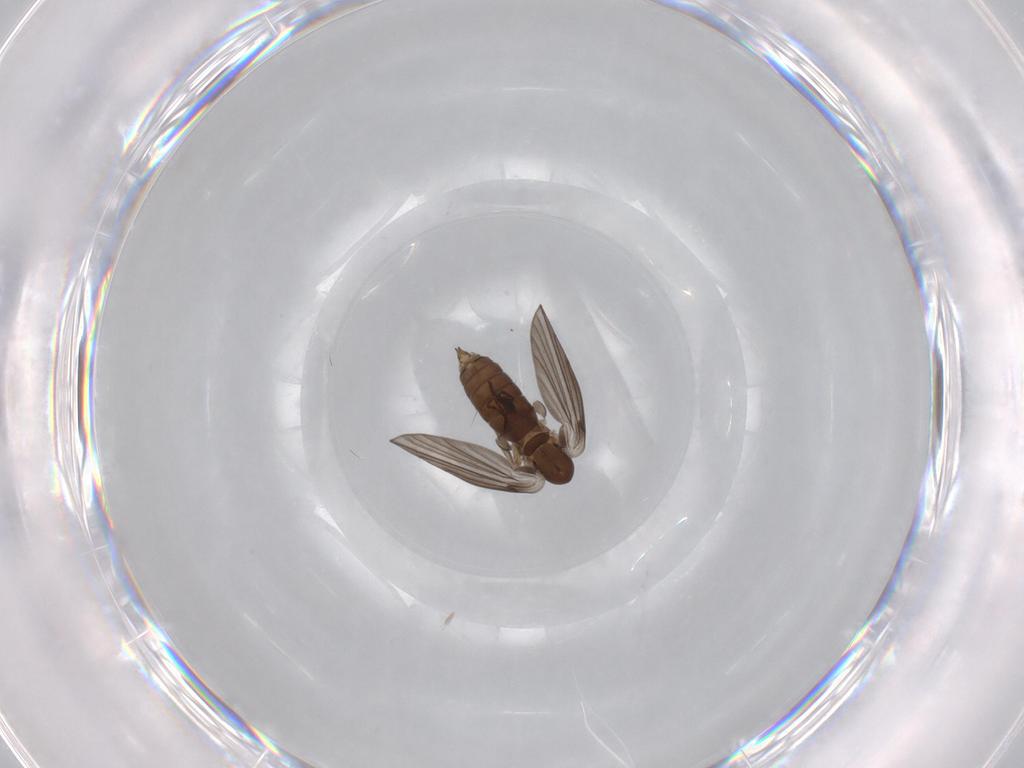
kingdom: Animalia
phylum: Arthropoda
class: Insecta
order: Diptera
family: Psychodidae
